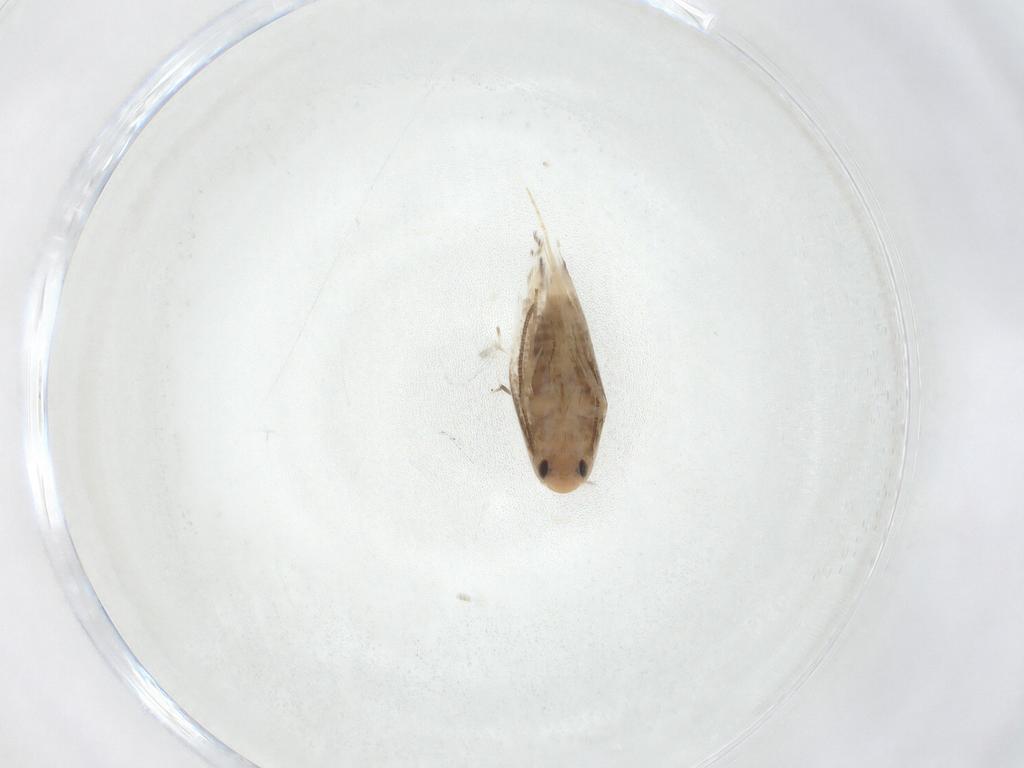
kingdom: Animalia
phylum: Arthropoda
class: Insecta
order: Lepidoptera
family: Lyonetiidae
